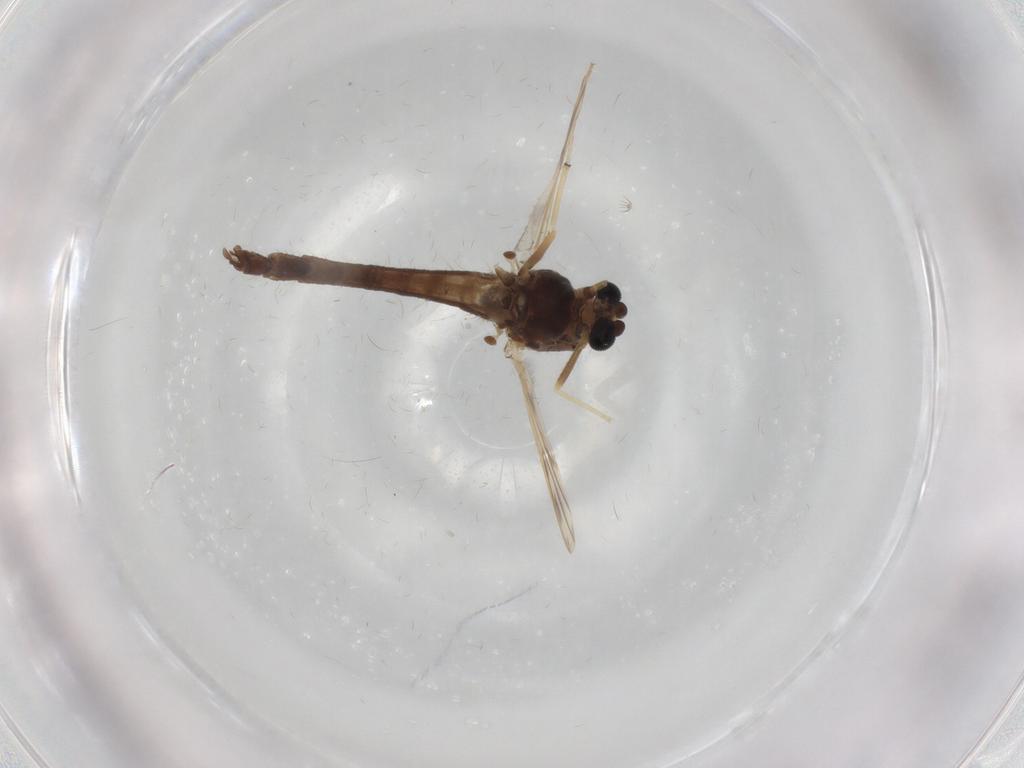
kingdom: Animalia
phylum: Arthropoda
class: Insecta
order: Diptera
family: Chironomidae
